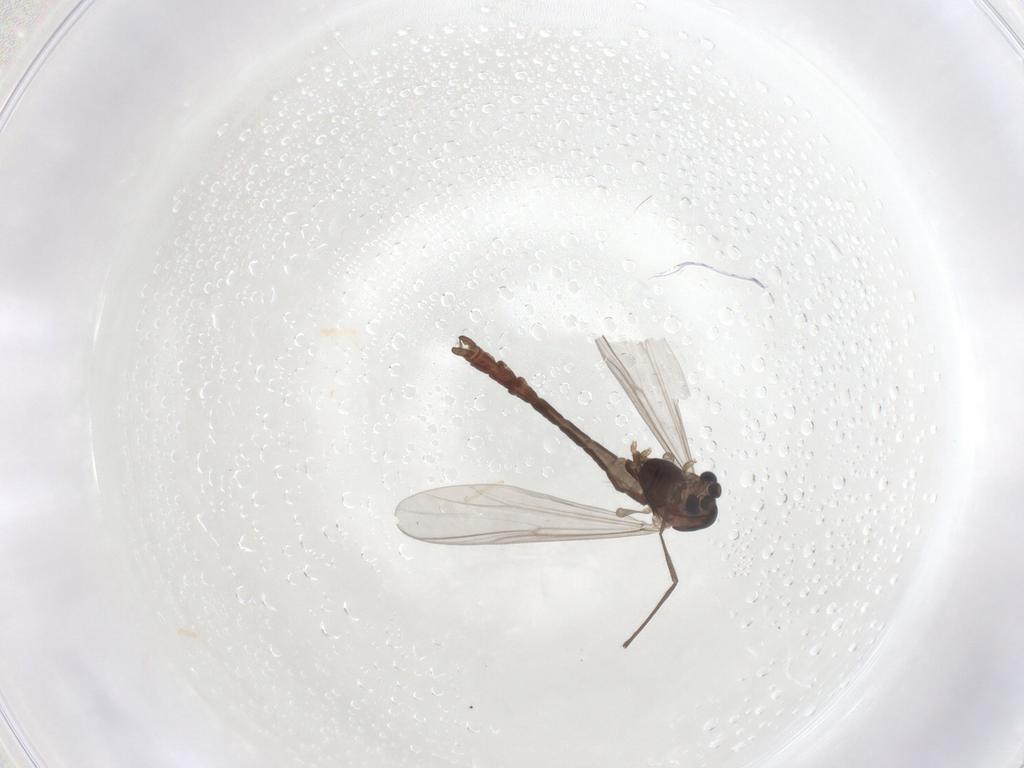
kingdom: Animalia
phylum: Arthropoda
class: Insecta
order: Diptera
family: Chironomidae
